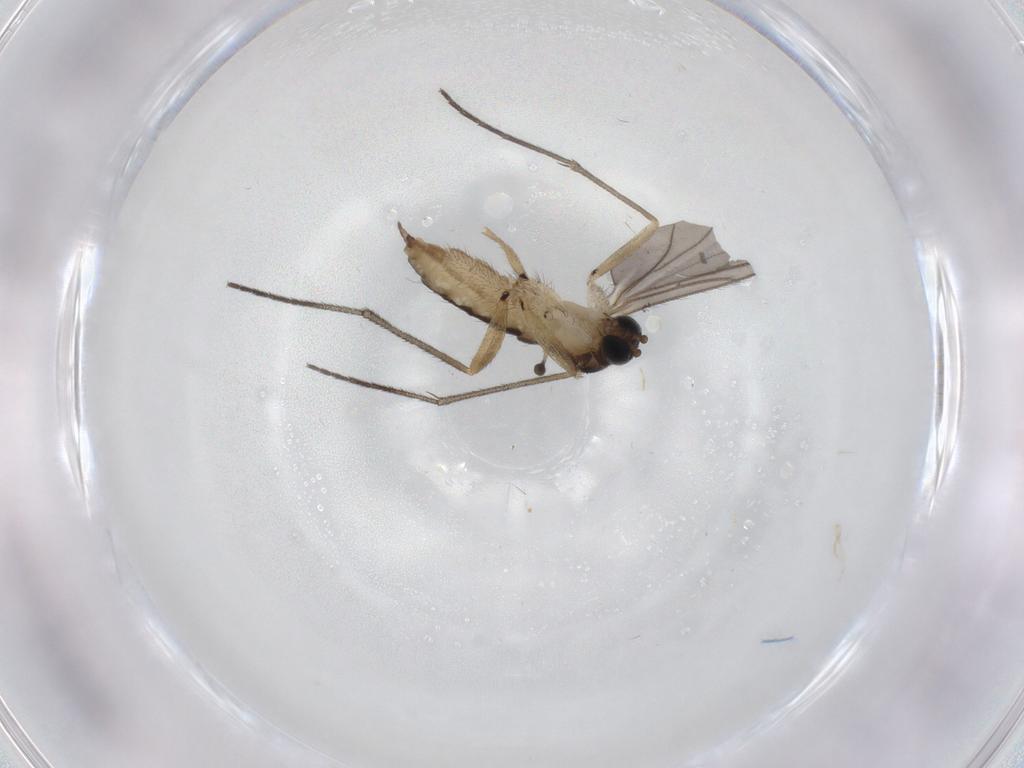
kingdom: Animalia
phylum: Arthropoda
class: Insecta
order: Diptera
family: Sciaridae
